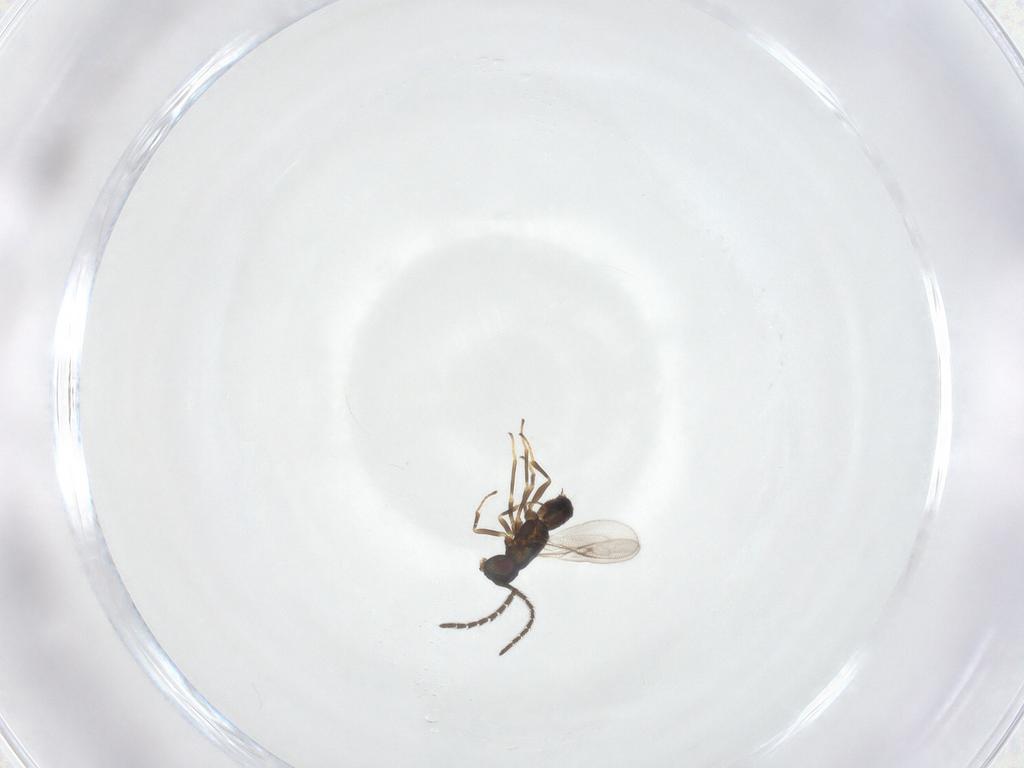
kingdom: Animalia
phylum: Arthropoda
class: Insecta
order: Hymenoptera
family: Encyrtidae
